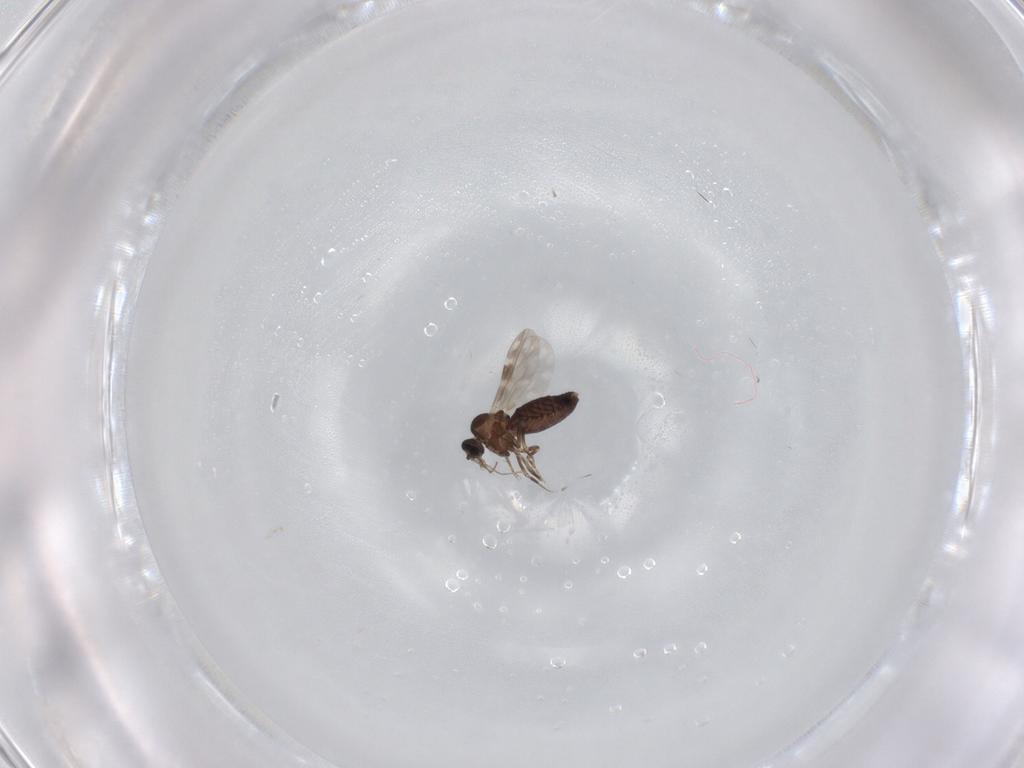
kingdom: Animalia
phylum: Arthropoda
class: Insecta
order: Diptera
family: Ceratopogonidae
